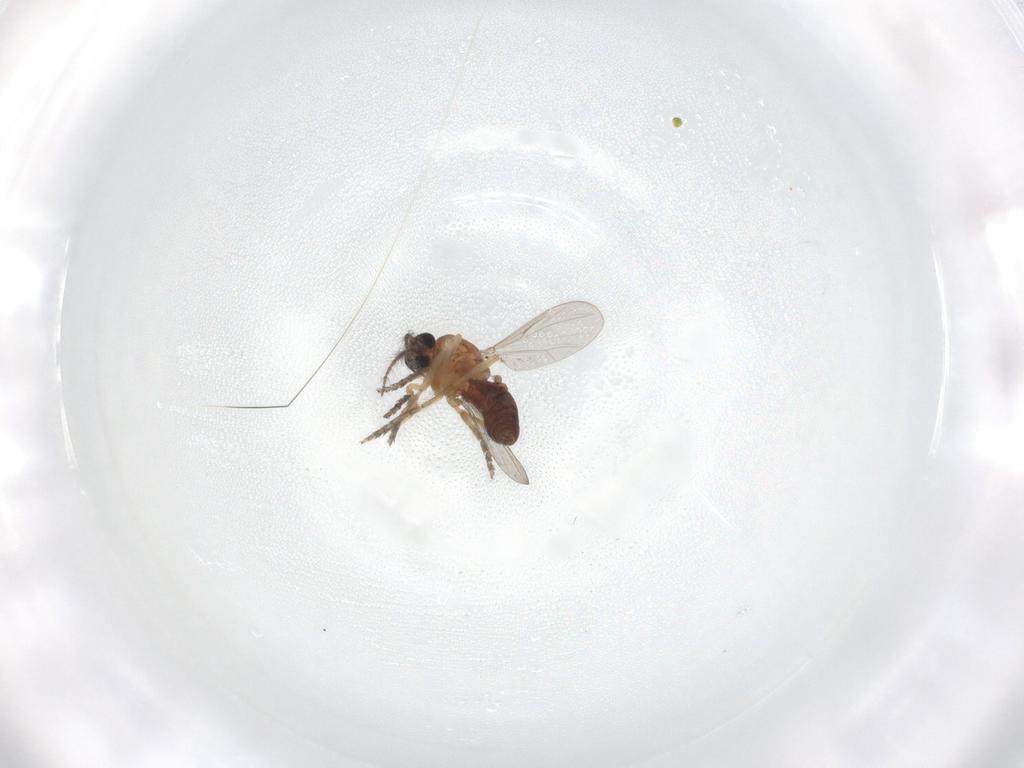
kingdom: Animalia
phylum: Arthropoda
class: Insecta
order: Diptera
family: Ceratopogonidae
